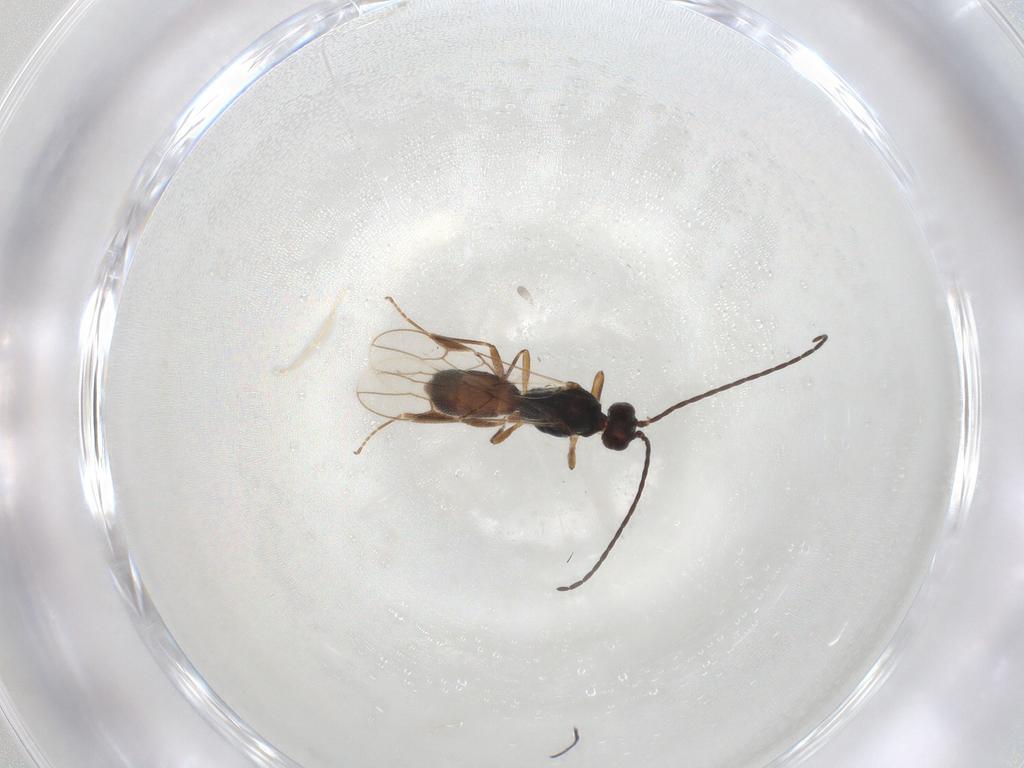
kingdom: Animalia
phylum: Arthropoda
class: Insecta
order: Hymenoptera
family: Braconidae
